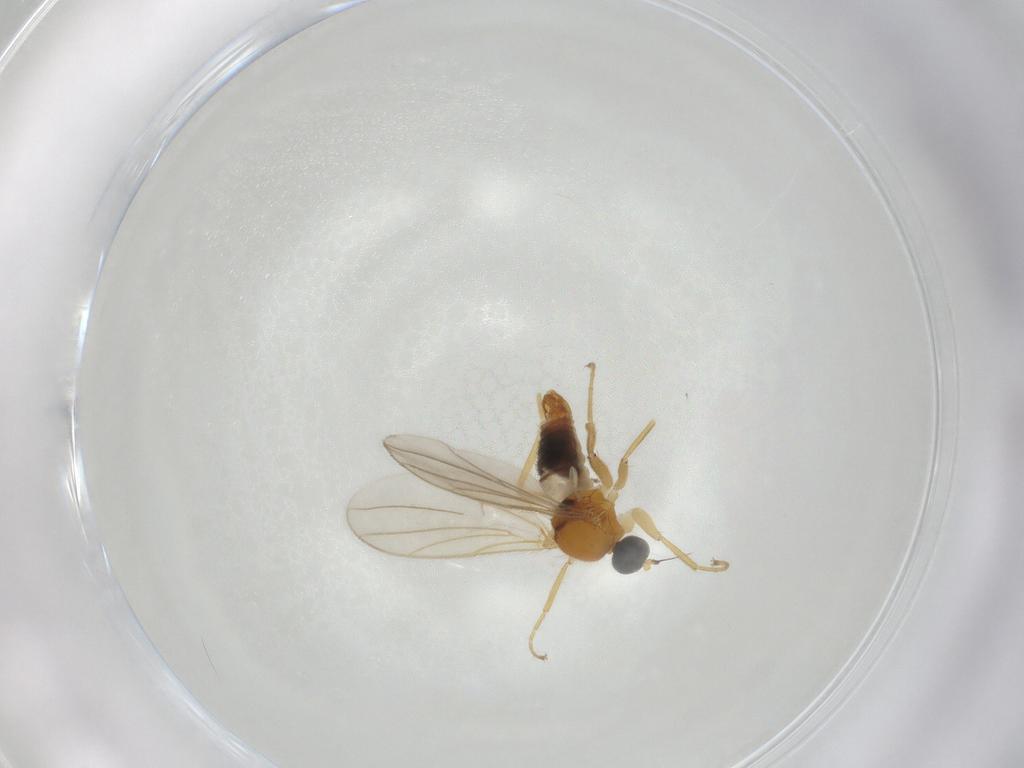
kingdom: Animalia
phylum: Arthropoda
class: Insecta
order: Diptera
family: Hybotidae
